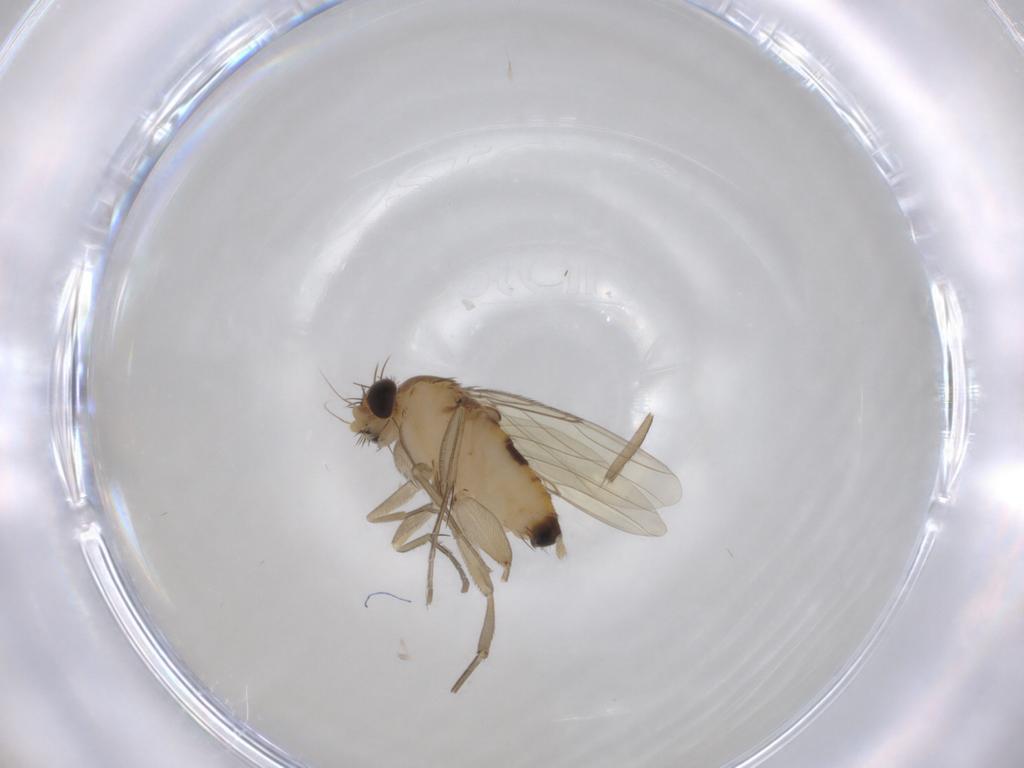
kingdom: Animalia
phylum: Arthropoda
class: Insecta
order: Diptera
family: Phoridae
